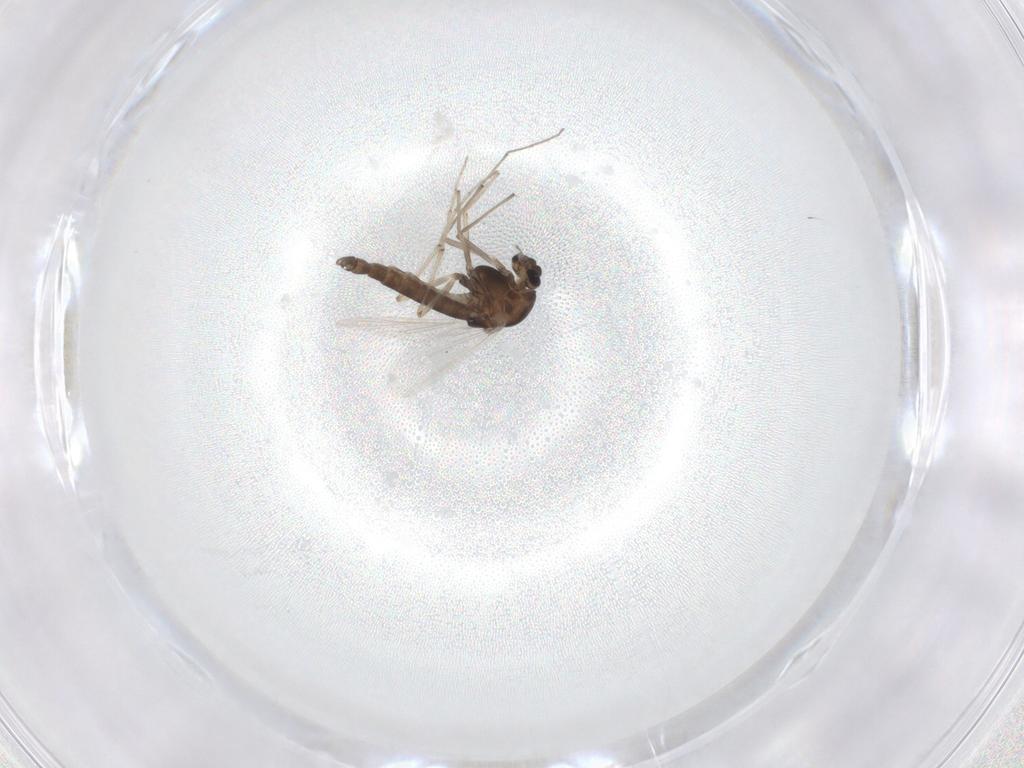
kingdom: Animalia
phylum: Arthropoda
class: Insecta
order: Diptera
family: Chironomidae
